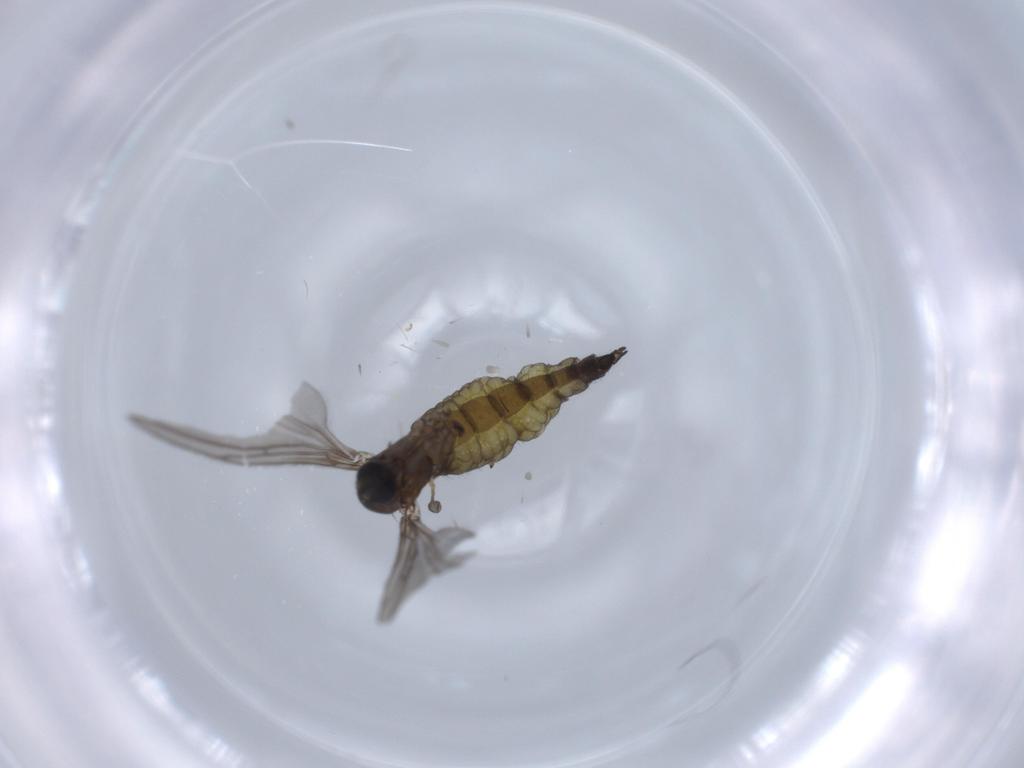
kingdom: Animalia
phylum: Arthropoda
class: Insecta
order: Diptera
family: Sciaridae
